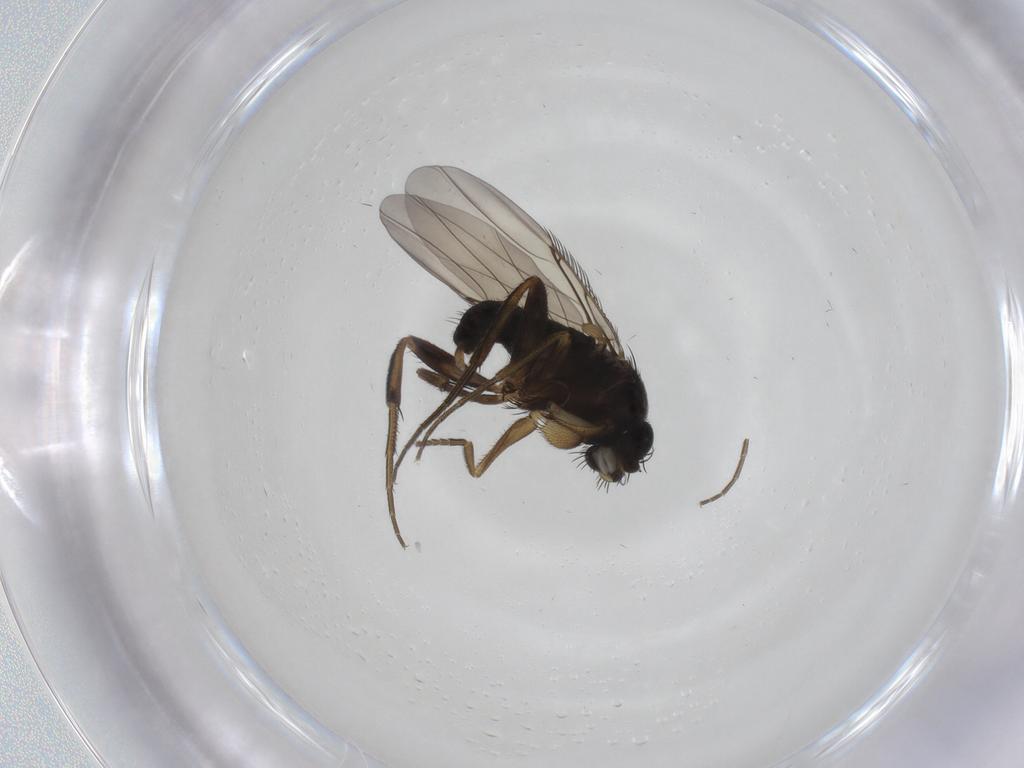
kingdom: Animalia
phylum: Arthropoda
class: Insecta
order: Diptera
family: Phoridae
